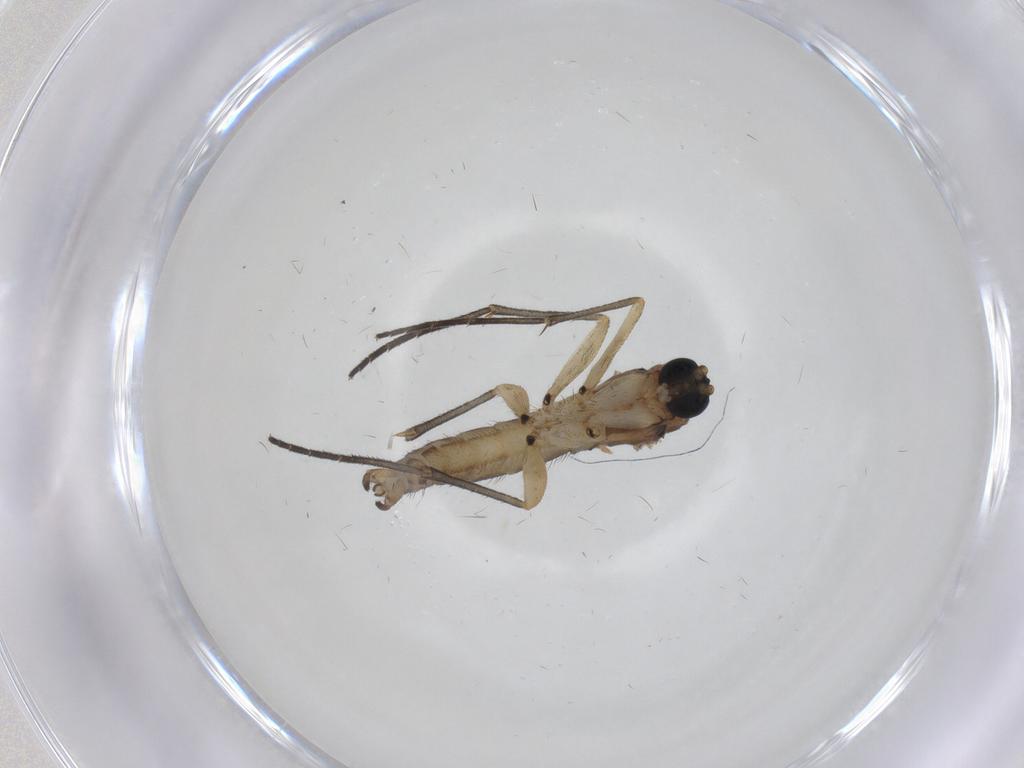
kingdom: Animalia
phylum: Arthropoda
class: Insecta
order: Diptera
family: Sciaridae
